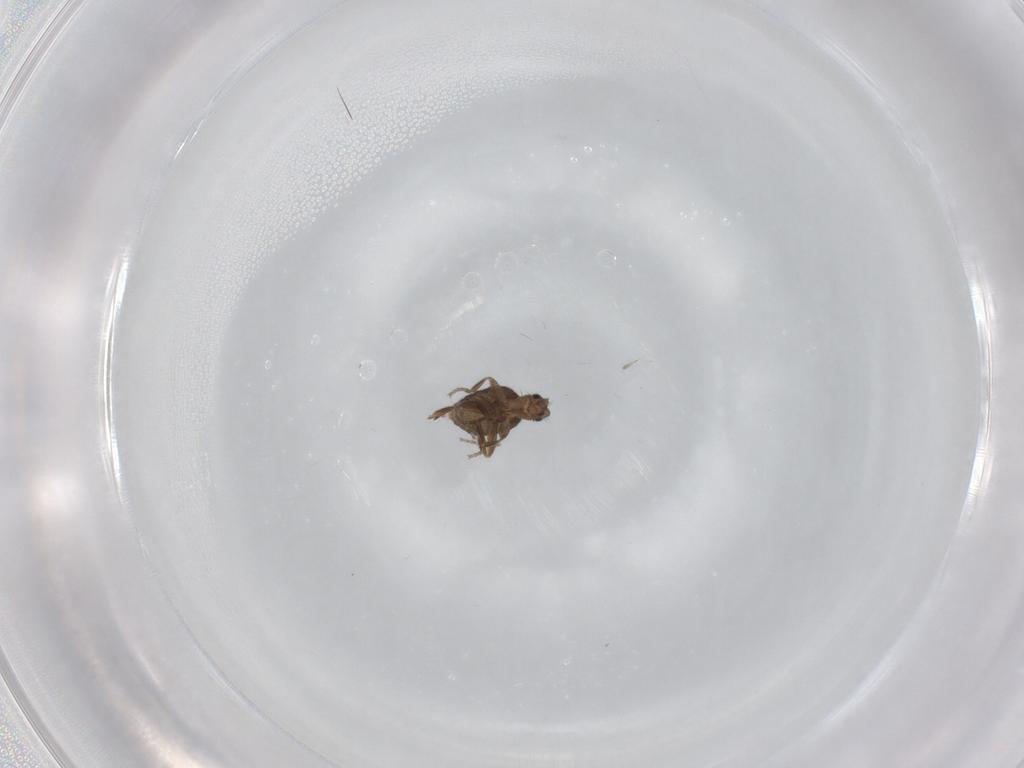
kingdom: Animalia
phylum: Arthropoda
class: Insecta
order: Diptera
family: Phoridae
